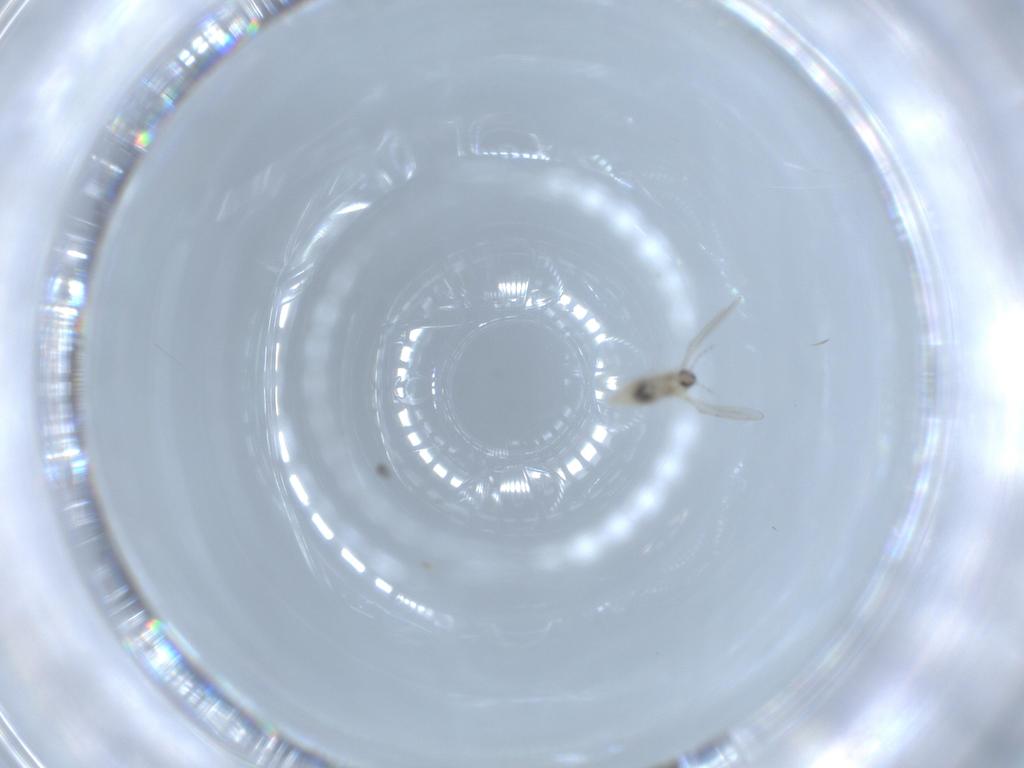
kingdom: Animalia
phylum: Arthropoda
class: Insecta
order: Diptera
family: Cecidomyiidae
